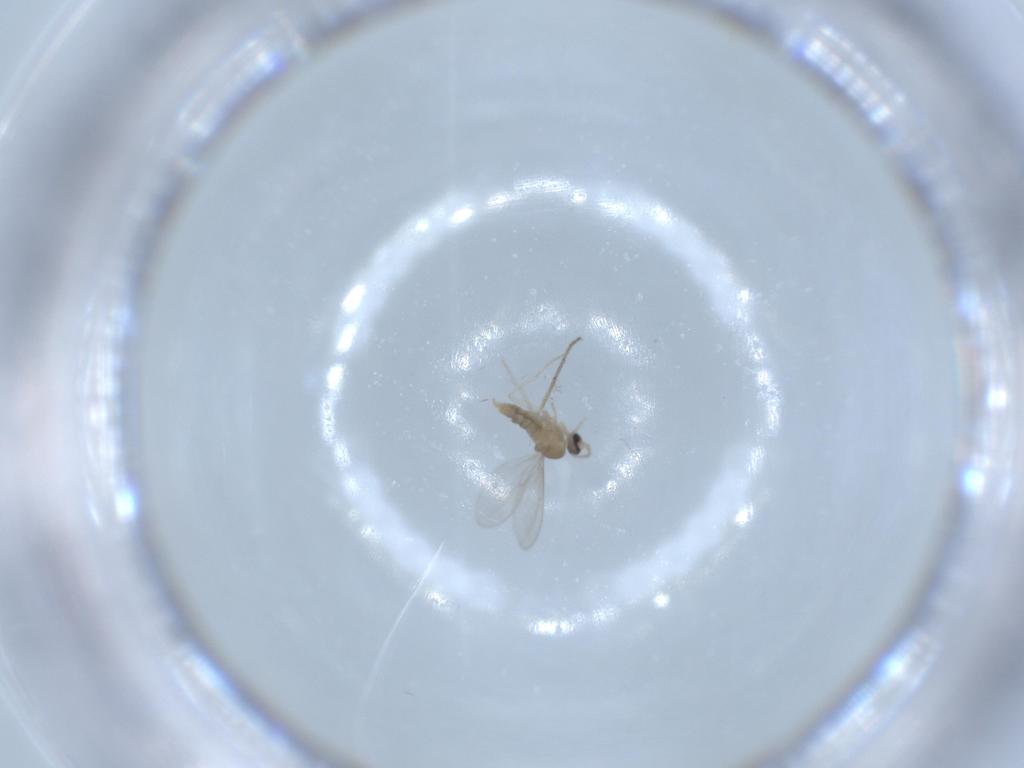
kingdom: Animalia
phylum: Arthropoda
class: Insecta
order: Diptera
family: Cecidomyiidae
